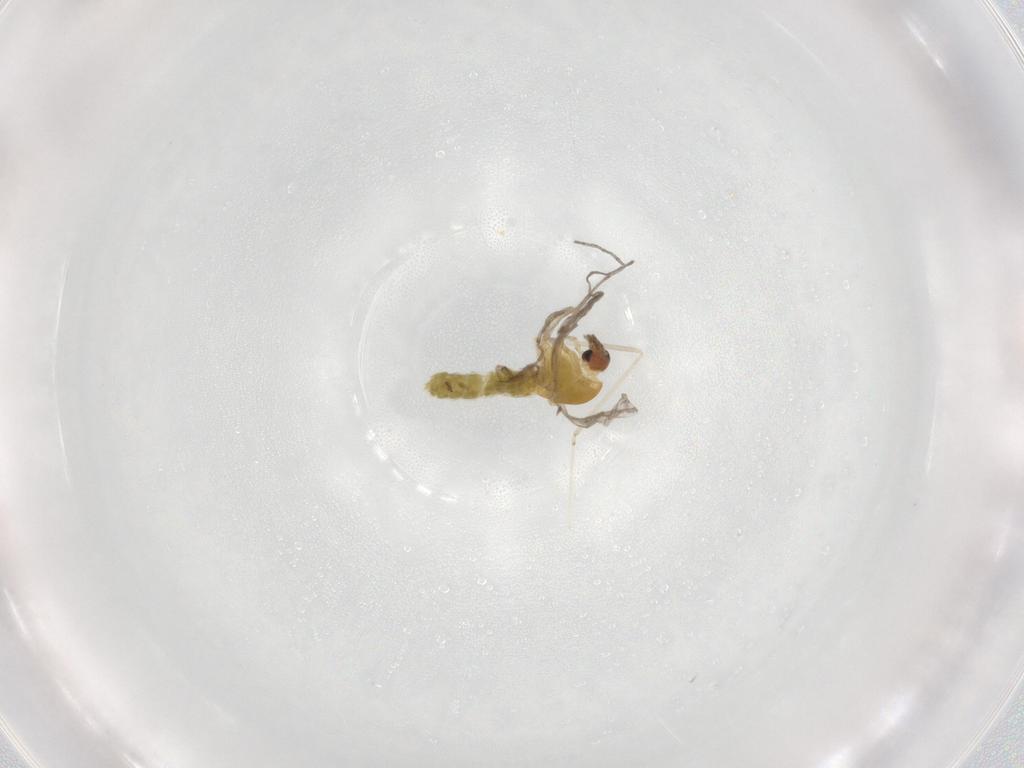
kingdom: Animalia
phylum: Arthropoda
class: Insecta
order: Diptera
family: Chironomidae
